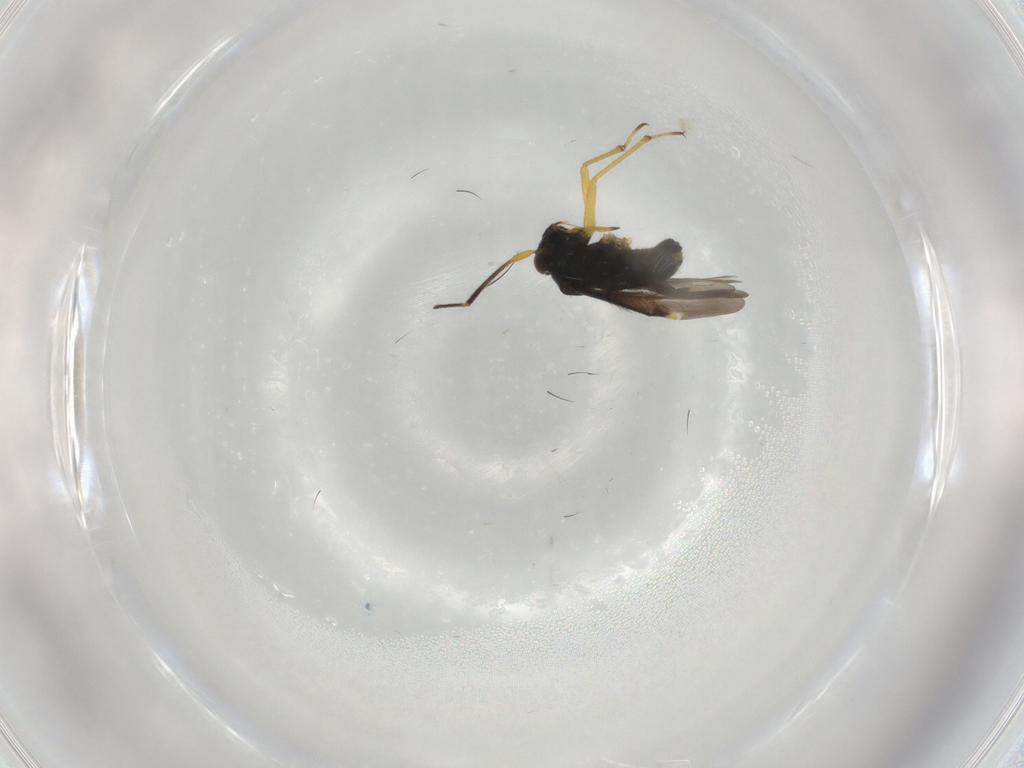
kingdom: Animalia
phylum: Arthropoda
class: Insecta
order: Hemiptera
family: Miridae
